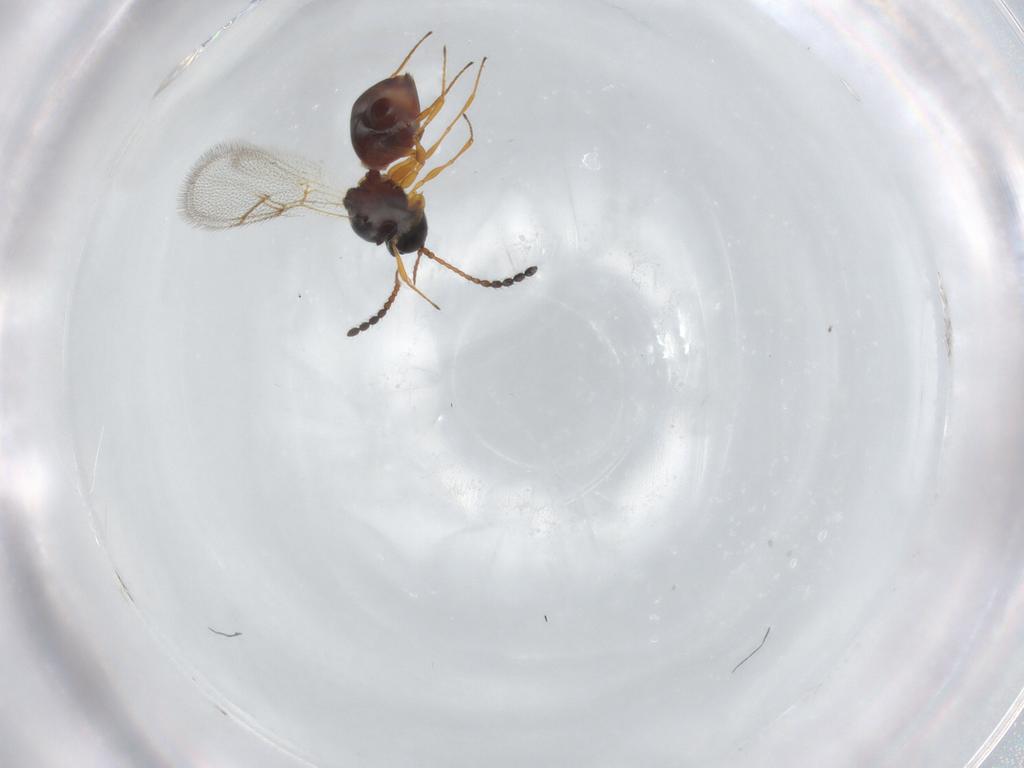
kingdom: Animalia
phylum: Arthropoda
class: Insecta
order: Hymenoptera
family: Figitidae
